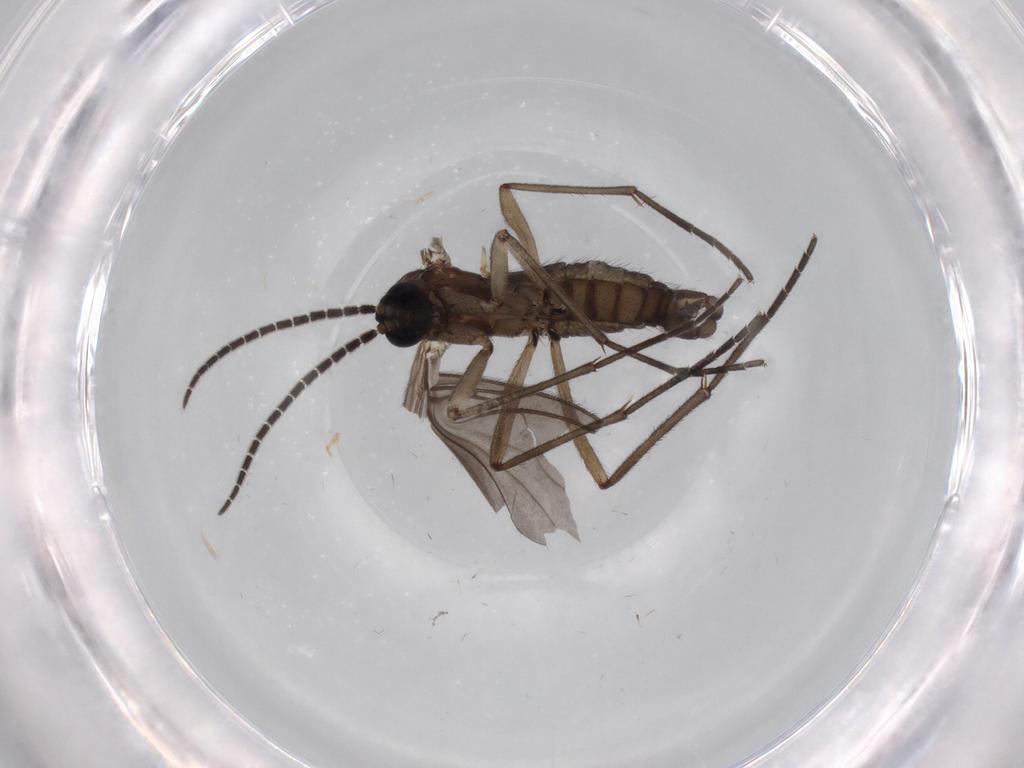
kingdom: Animalia
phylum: Arthropoda
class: Insecta
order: Diptera
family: Sciaridae
